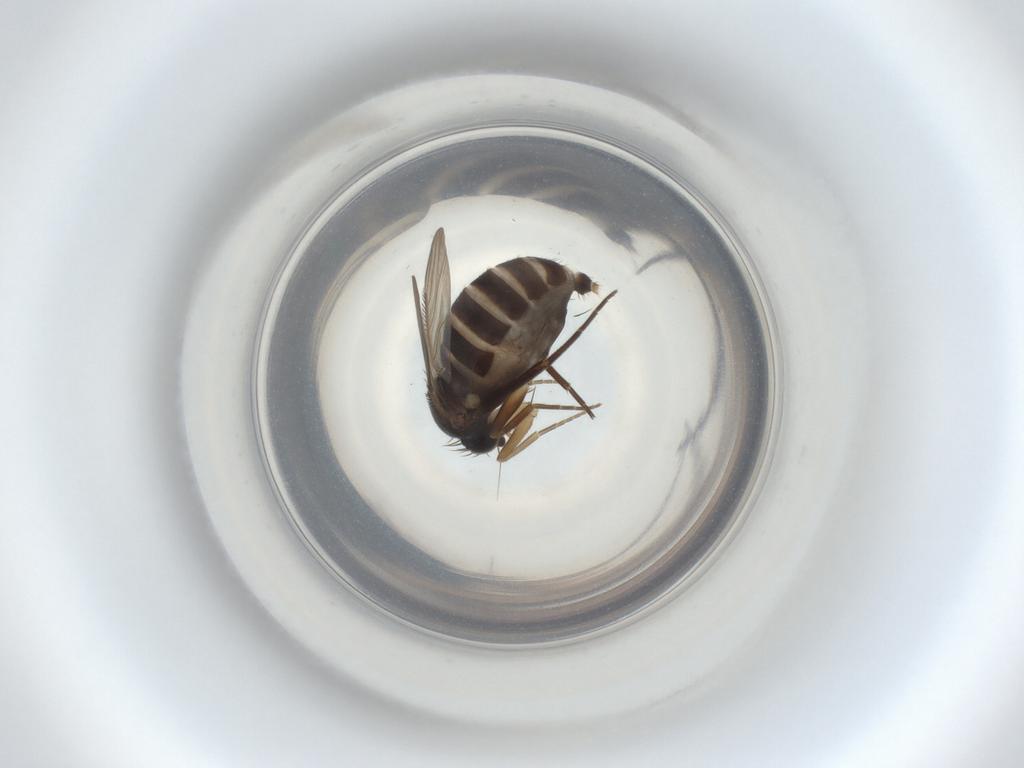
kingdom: Animalia
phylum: Arthropoda
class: Insecta
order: Diptera
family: Phoridae
